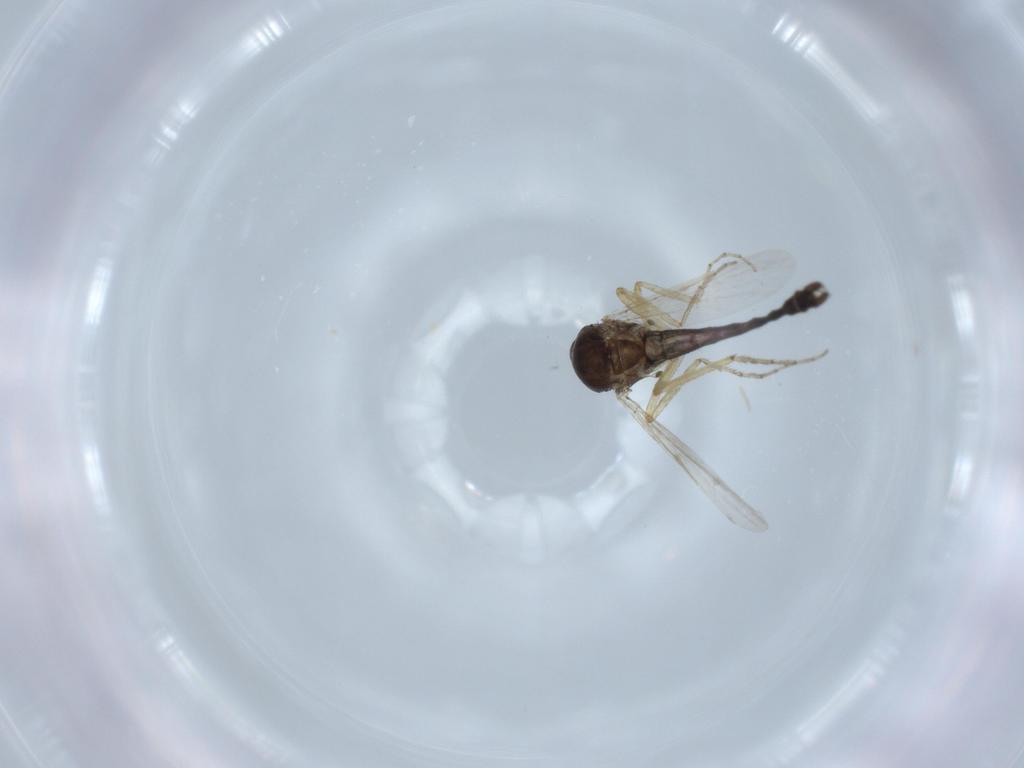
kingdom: Animalia
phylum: Arthropoda
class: Insecta
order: Diptera
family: Ceratopogonidae
